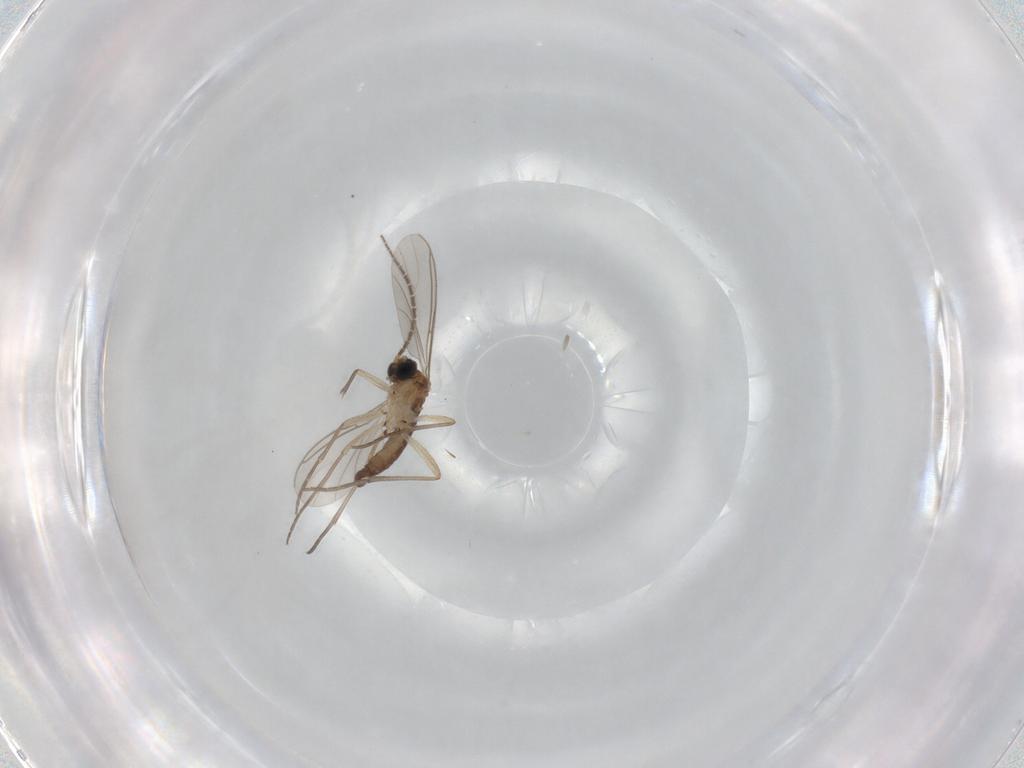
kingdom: Animalia
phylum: Arthropoda
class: Insecta
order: Diptera
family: Sciaridae
